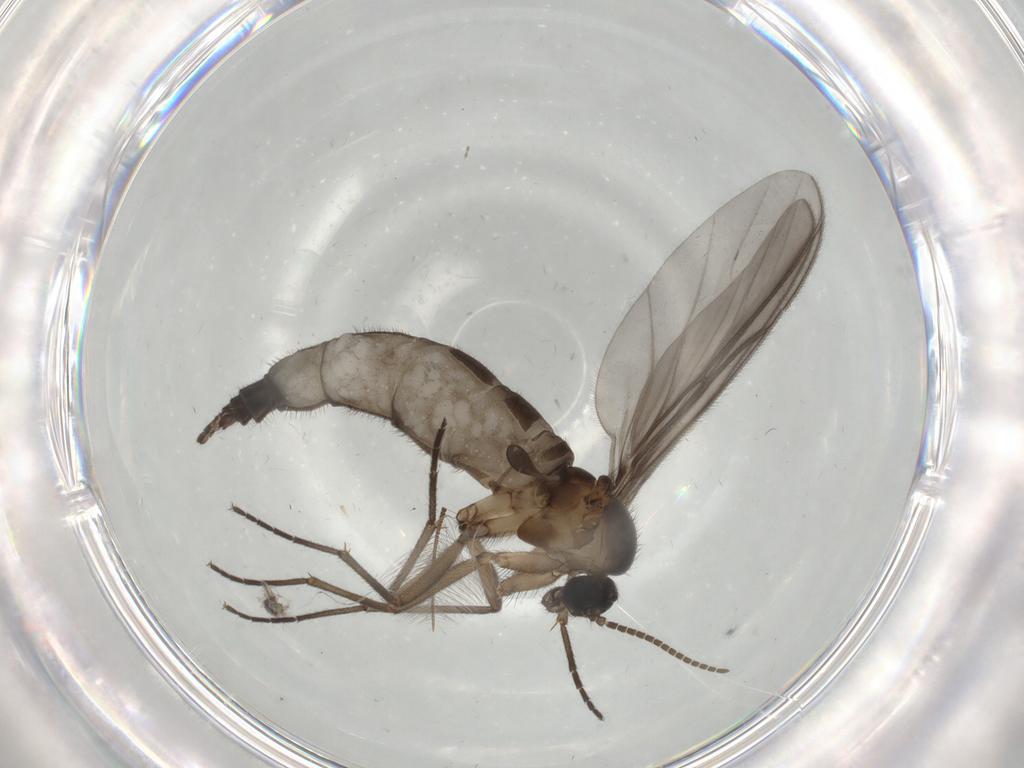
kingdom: Animalia
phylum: Arthropoda
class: Insecta
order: Diptera
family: Sciaridae
